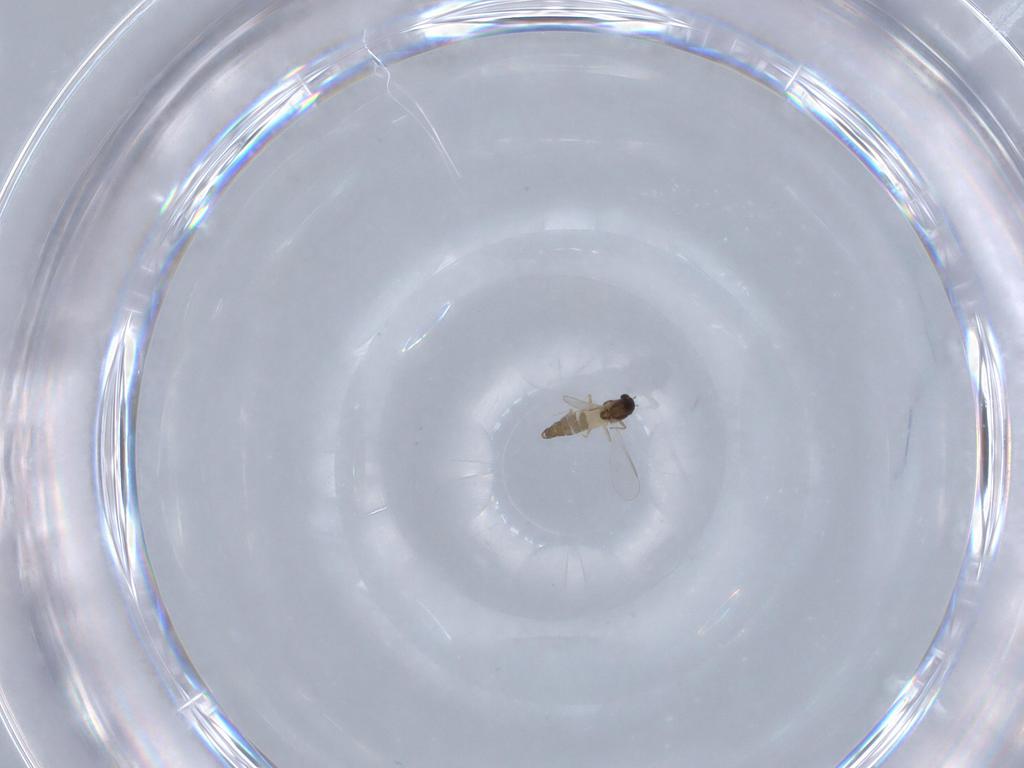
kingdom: Animalia
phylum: Arthropoda
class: Insecta
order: Diptera
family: Chironomidae
